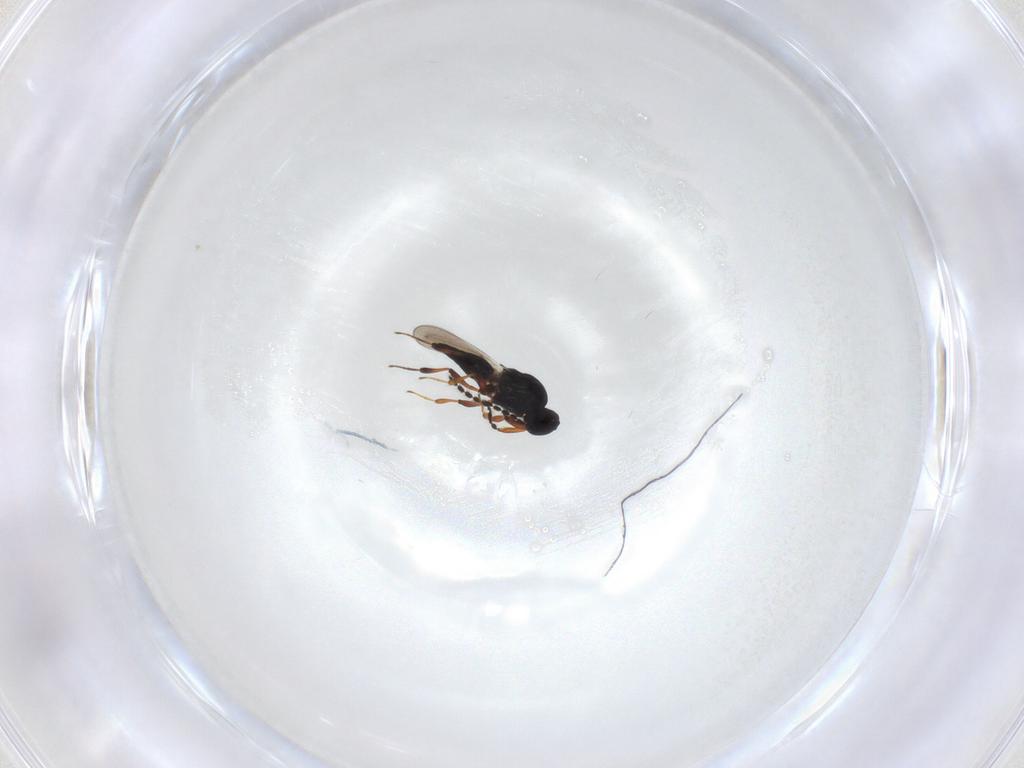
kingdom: Animalia
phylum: Arthropoda
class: Insecta
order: Hymenoptera
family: Platygastridae
